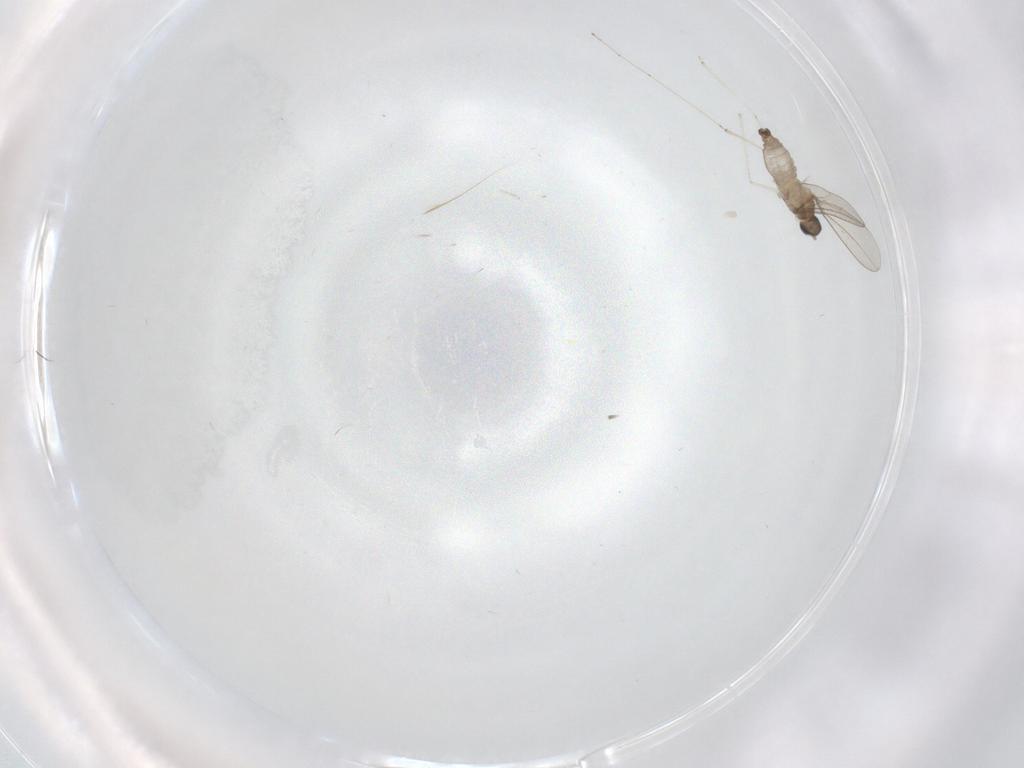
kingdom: Animalia
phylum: Arthropoda
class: Insecta
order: Diptera
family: Cecidomyiidae
